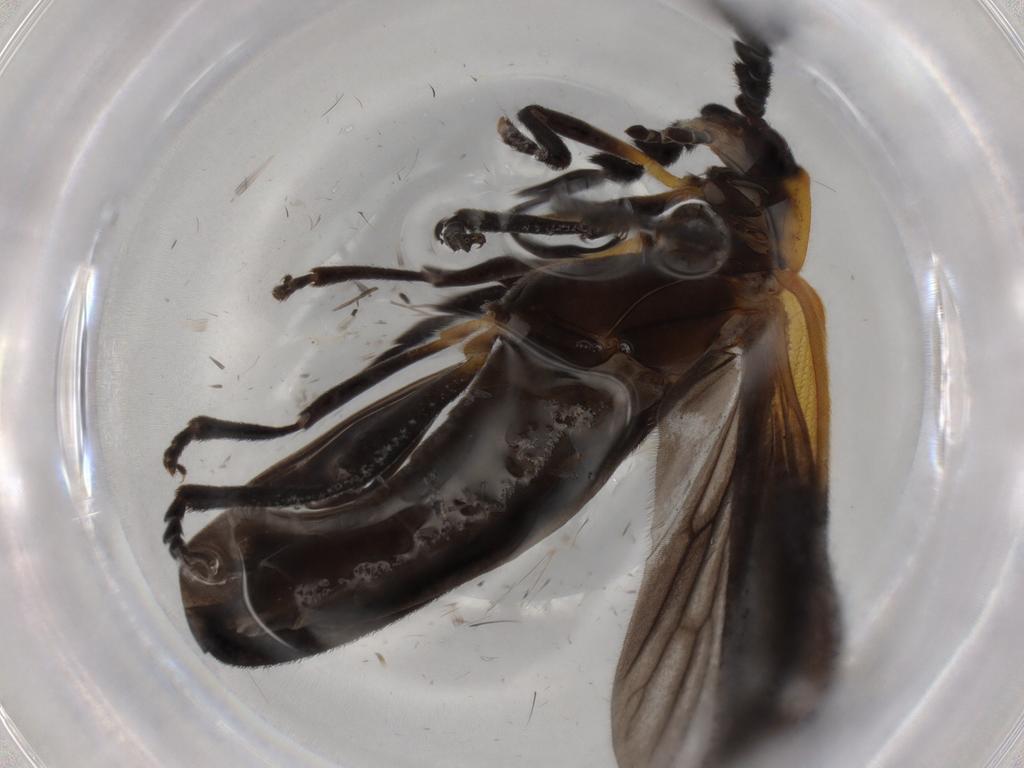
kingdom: Animalia
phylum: Arthropoda
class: Insecta
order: Coleoptera
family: Lycidae
